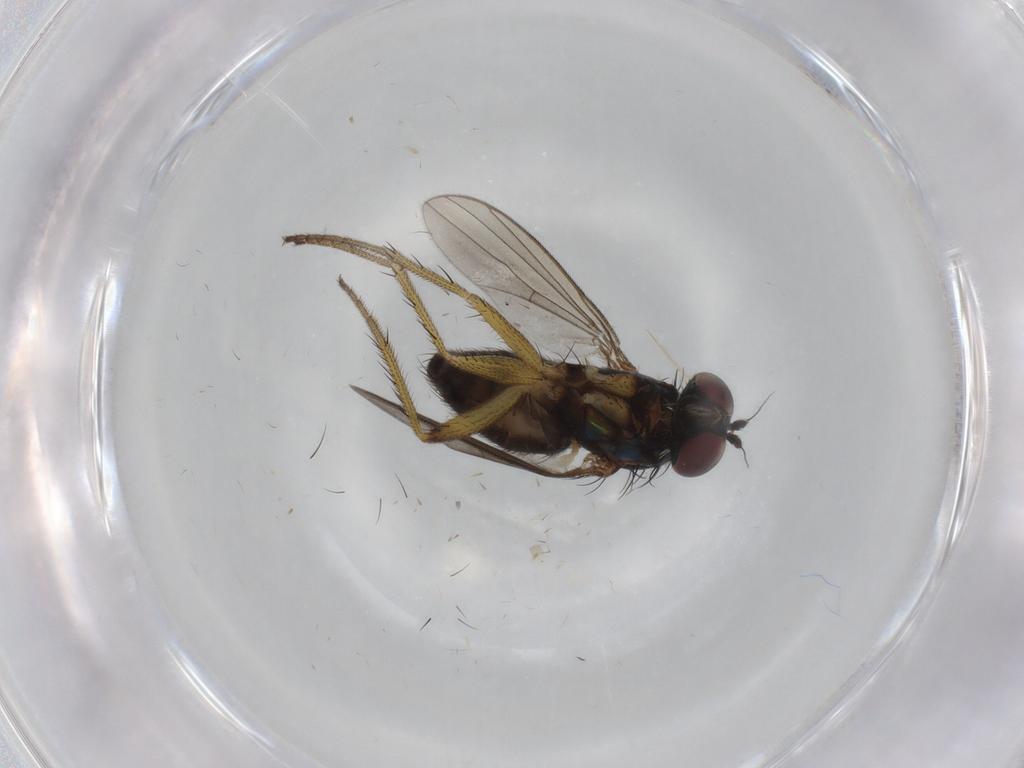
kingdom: Animalia
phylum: Arthropoda
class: Insecta
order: Diptera
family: Dolichopodidae
